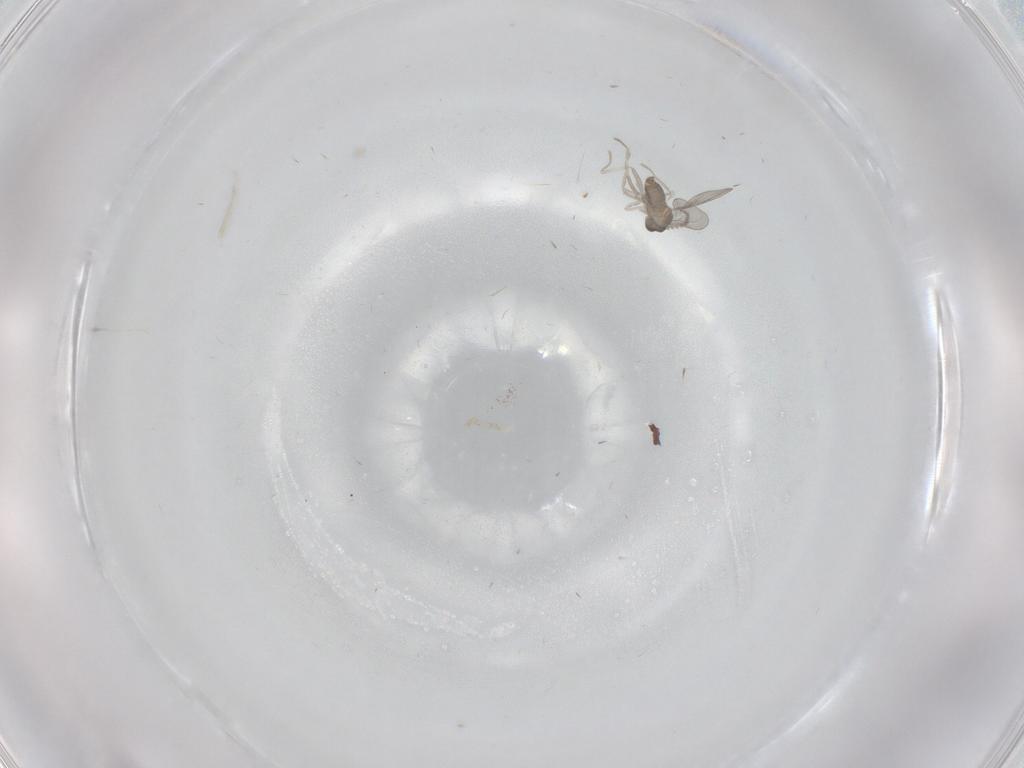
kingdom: Animalia
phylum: Arthropoda
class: Insecta
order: Diptera
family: Cecidomyiidae
